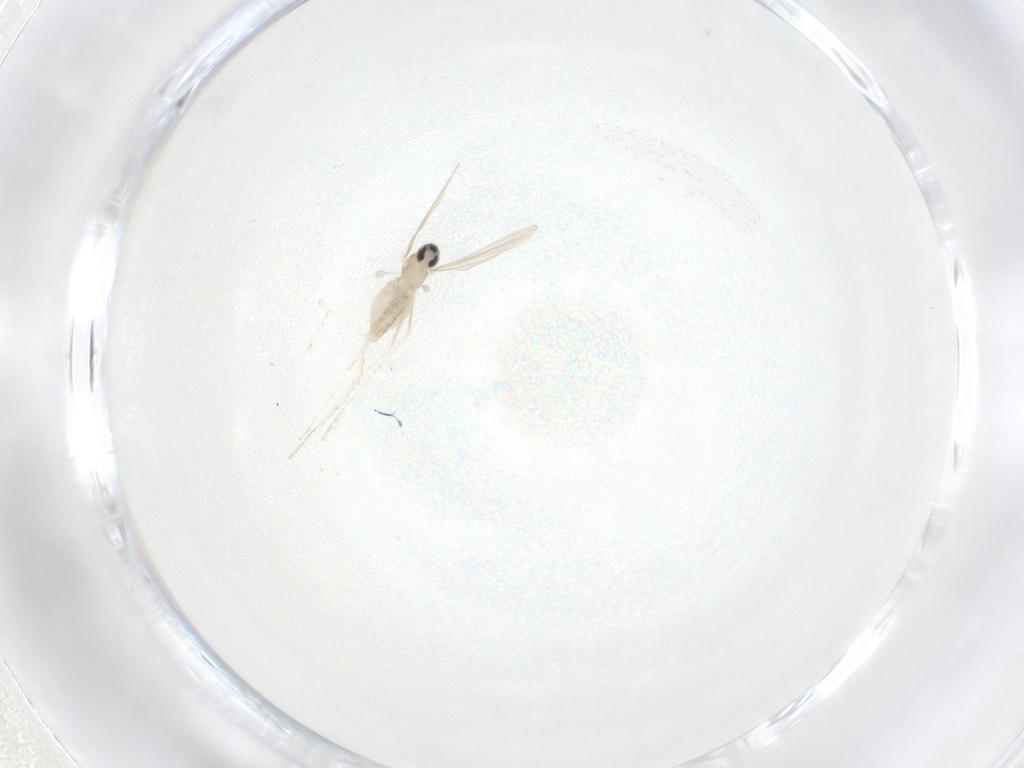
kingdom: Animalia
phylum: Arthropoda
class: Insecta
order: Diptera
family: Cecidomyiidae
